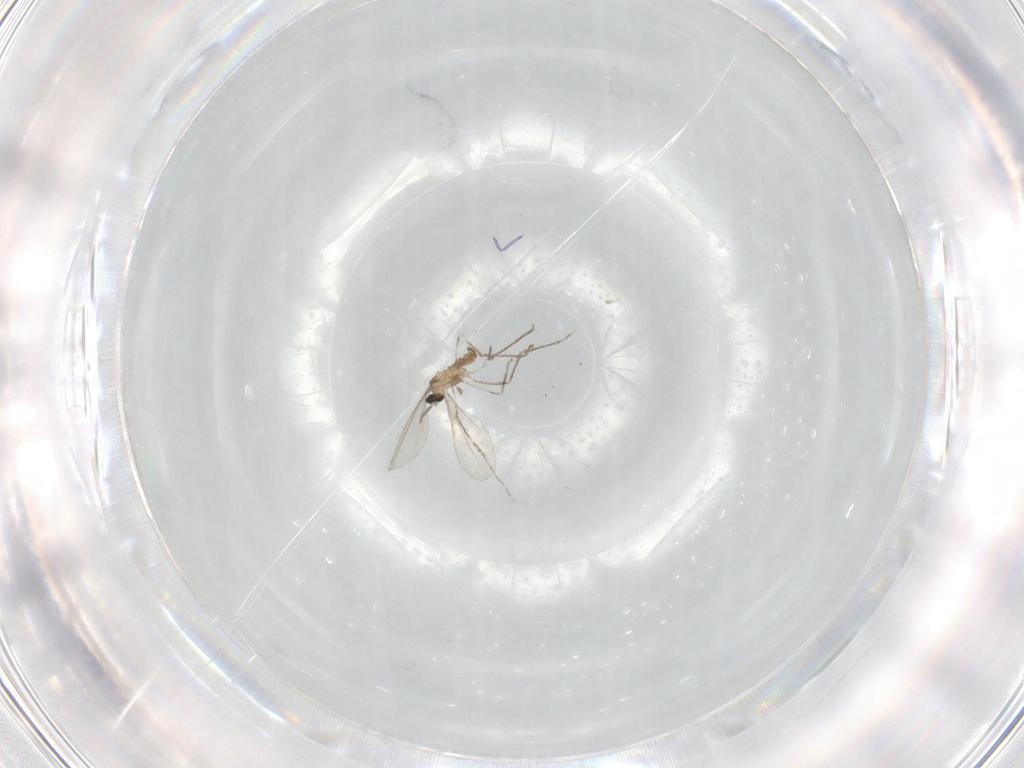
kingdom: Animalia
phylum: Arthropoda
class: Insecta
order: Diptera
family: Cecidomyiidae
